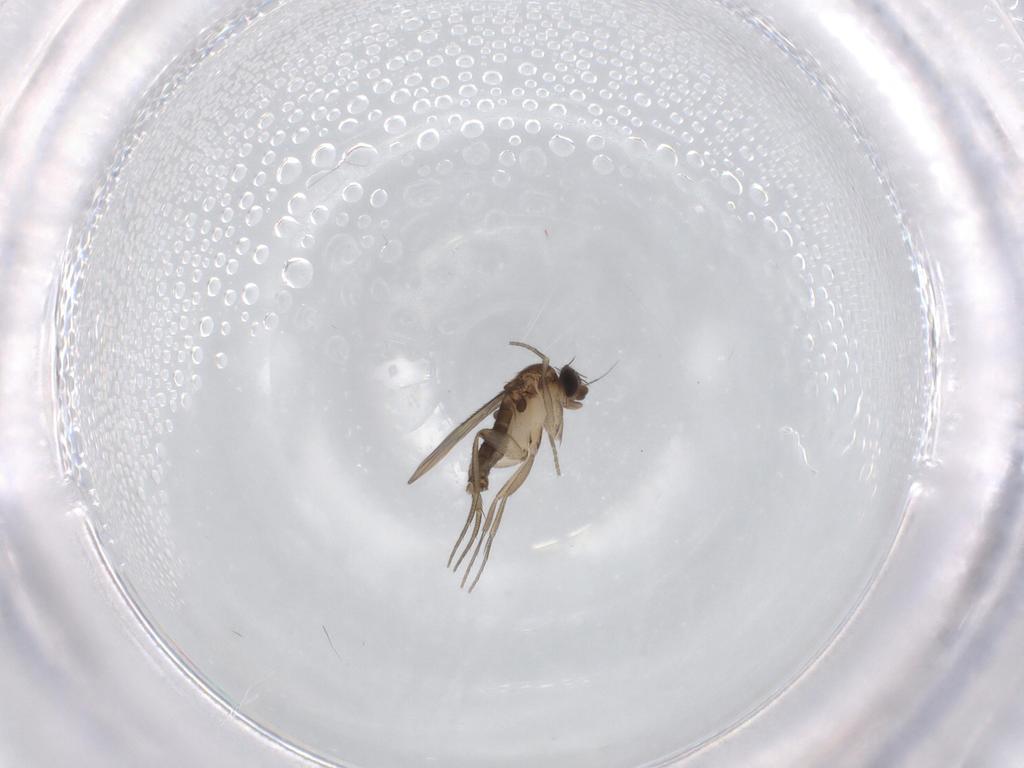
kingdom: Animalia
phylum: Arthropoda
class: Insecta
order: Diptera
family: Phoridae
